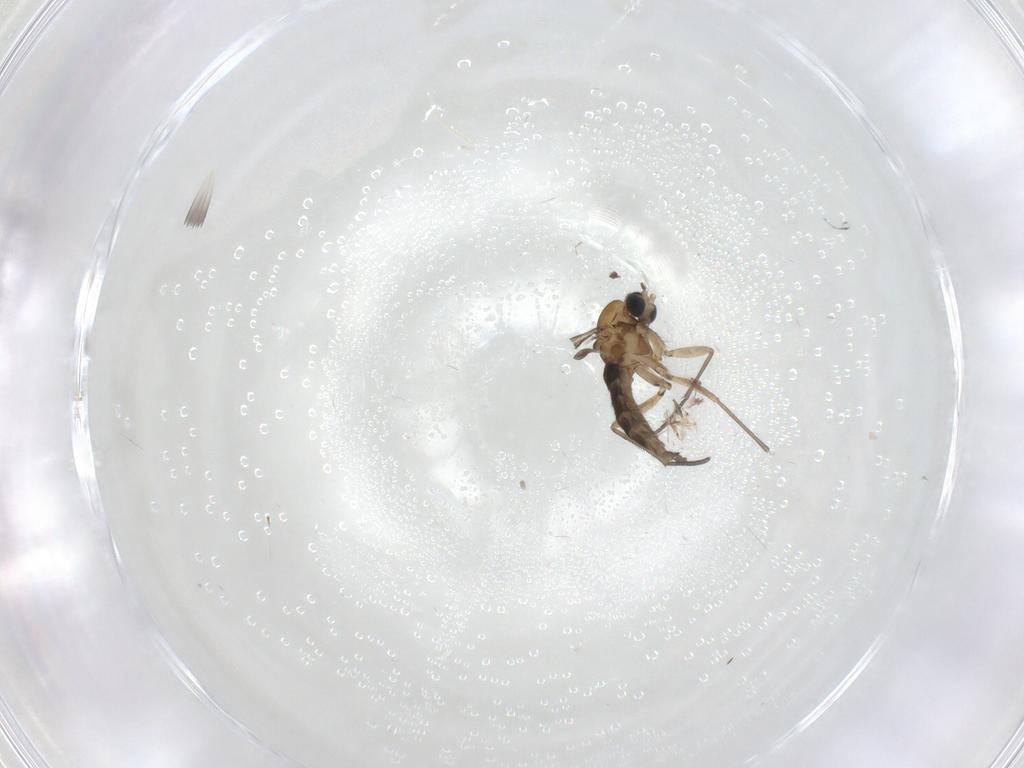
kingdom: Animalia
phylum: Arthropoda
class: Insecta
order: Diptera
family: Sciaridae
